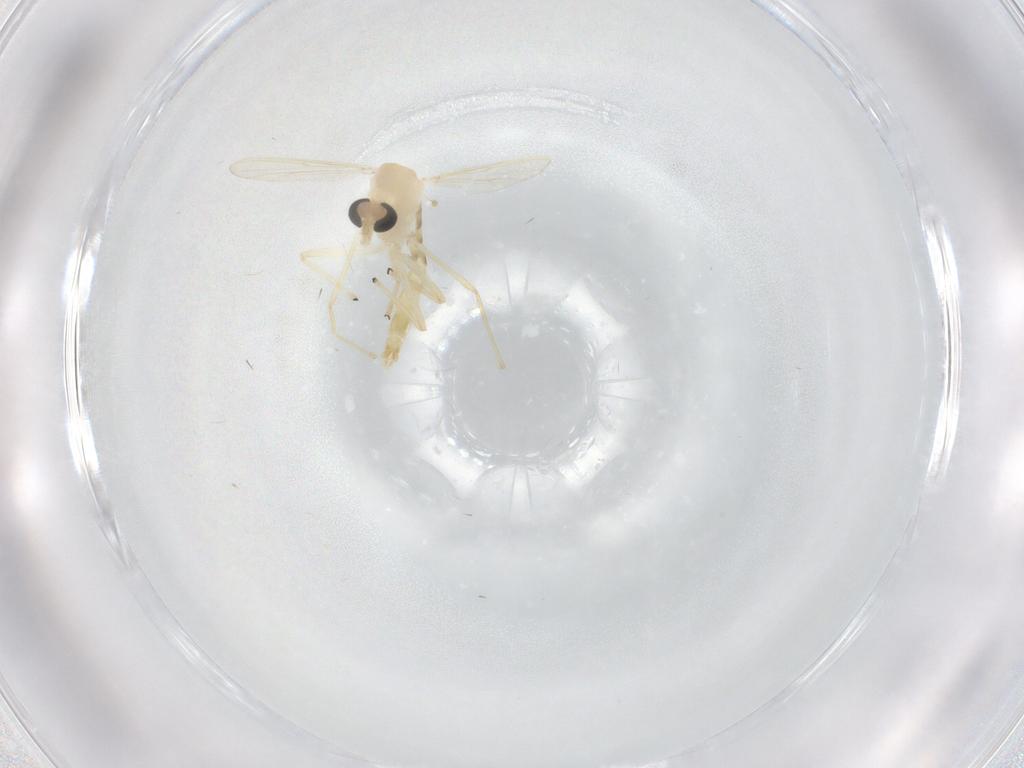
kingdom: Animalia
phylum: Arthropoda
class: Insecta
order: Diptera
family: Chironomidae
